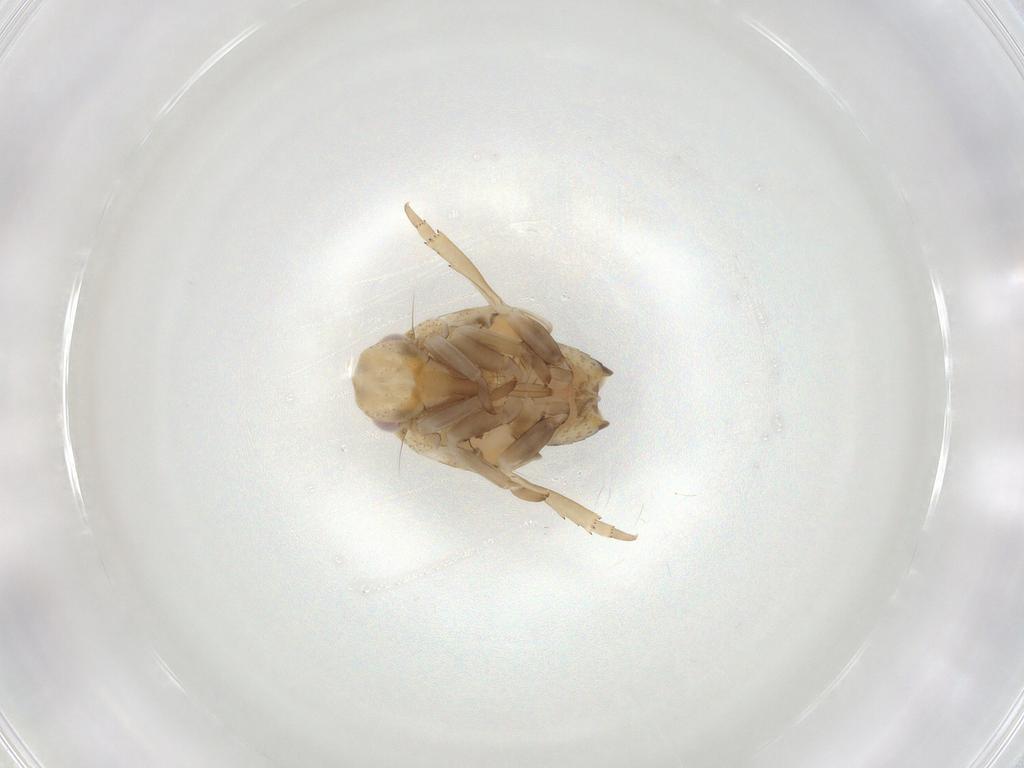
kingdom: Animalia
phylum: Arthropoda
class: Insecta
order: Hemiptera
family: Flatidae
